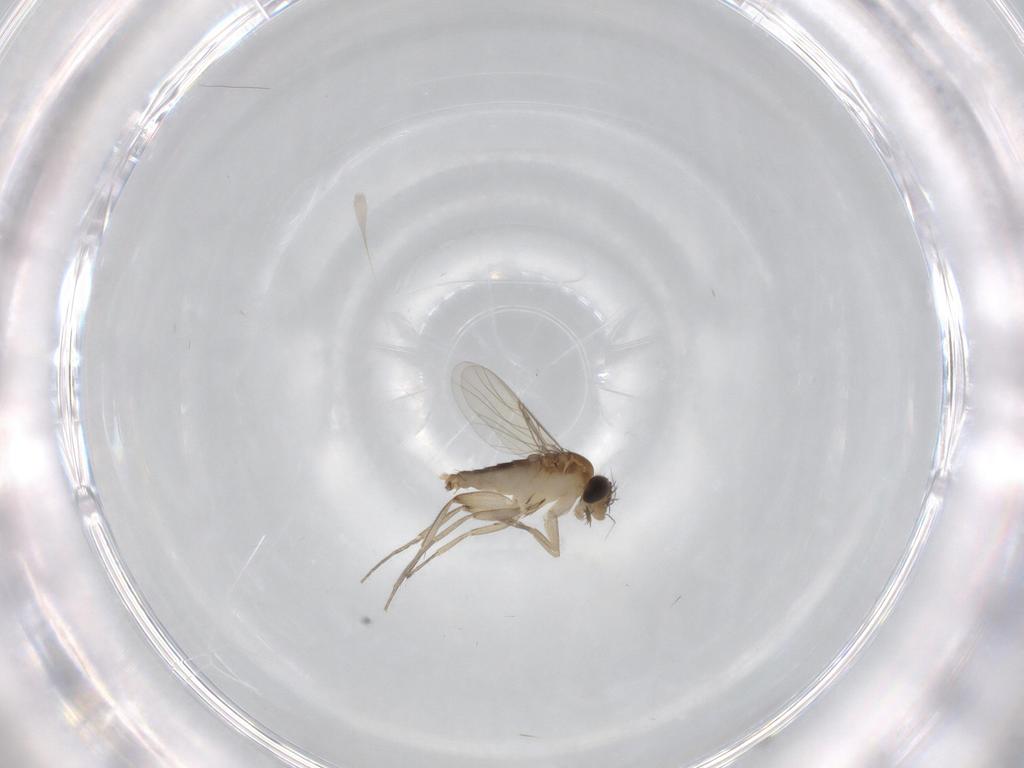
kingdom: Animalia
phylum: Arthropoda
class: Insecta
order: Diptera
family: Phoridae
